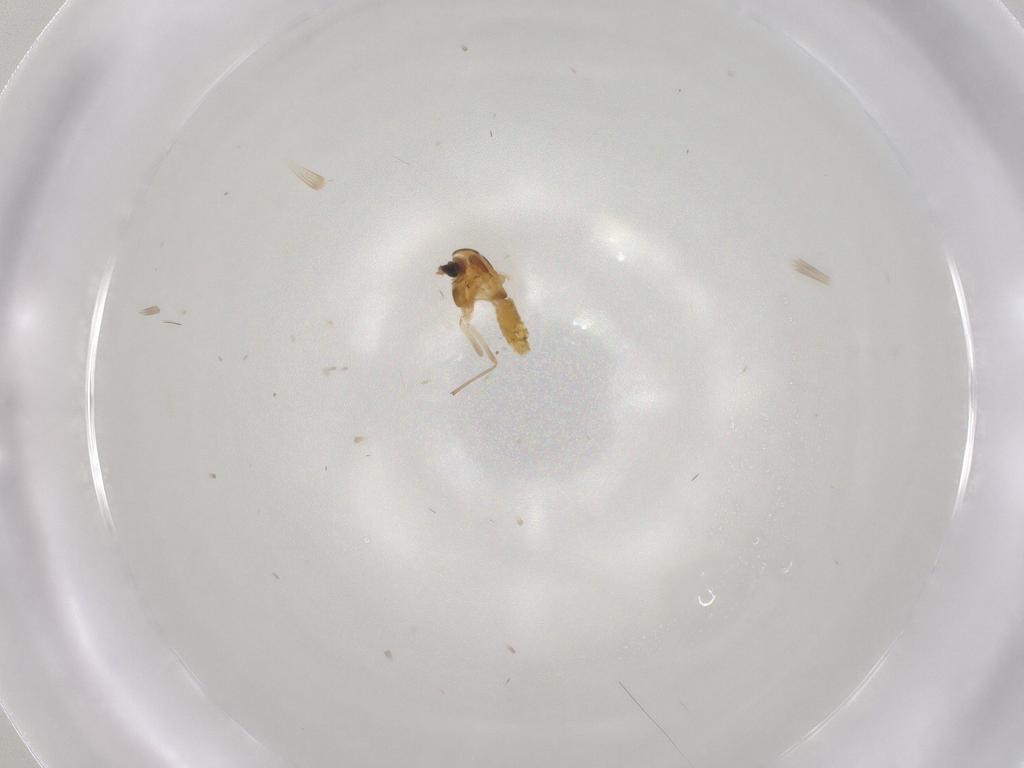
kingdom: Animalia
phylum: Arthropoda
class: Insecta
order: Diptera
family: Chironomidae
